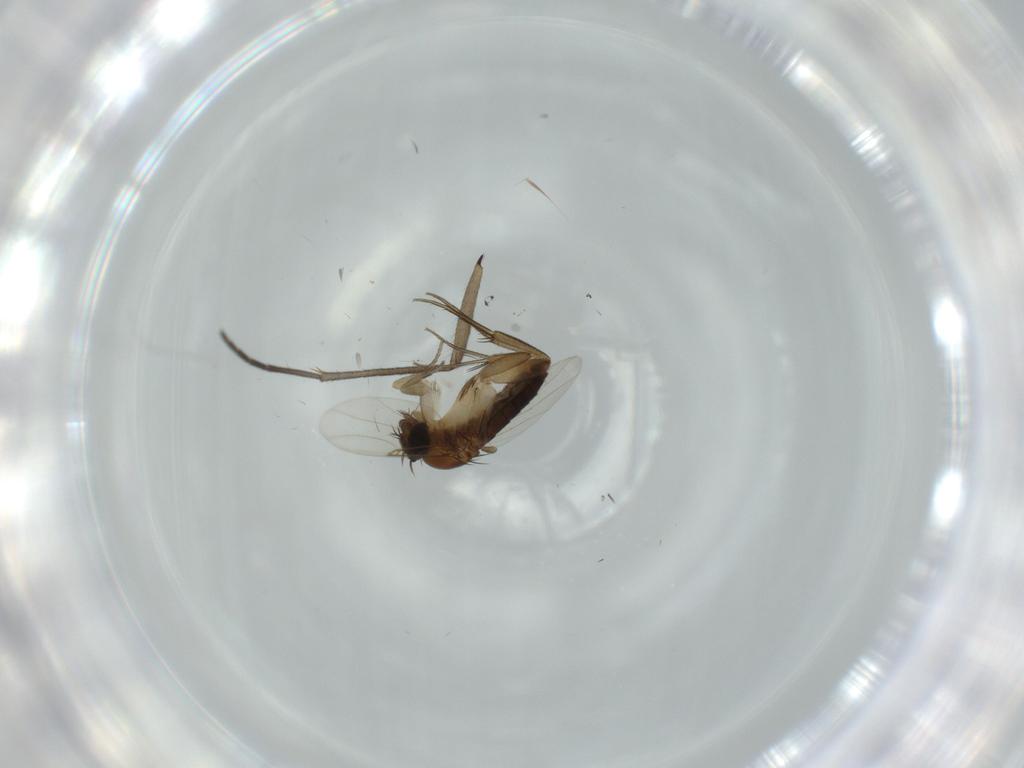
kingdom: Animalia
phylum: Arthropoda
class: Insecta
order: Diptera
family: Phoridae
